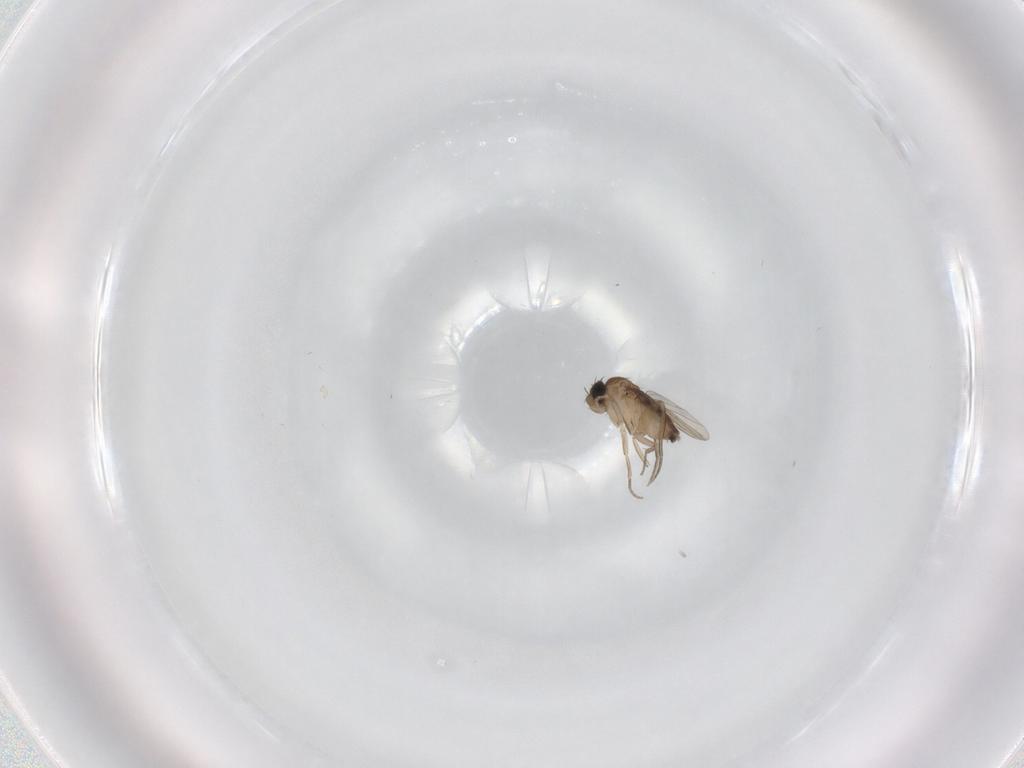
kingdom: Animalia
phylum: Arthropoda
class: Insecta
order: Diptera
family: Phoridae
